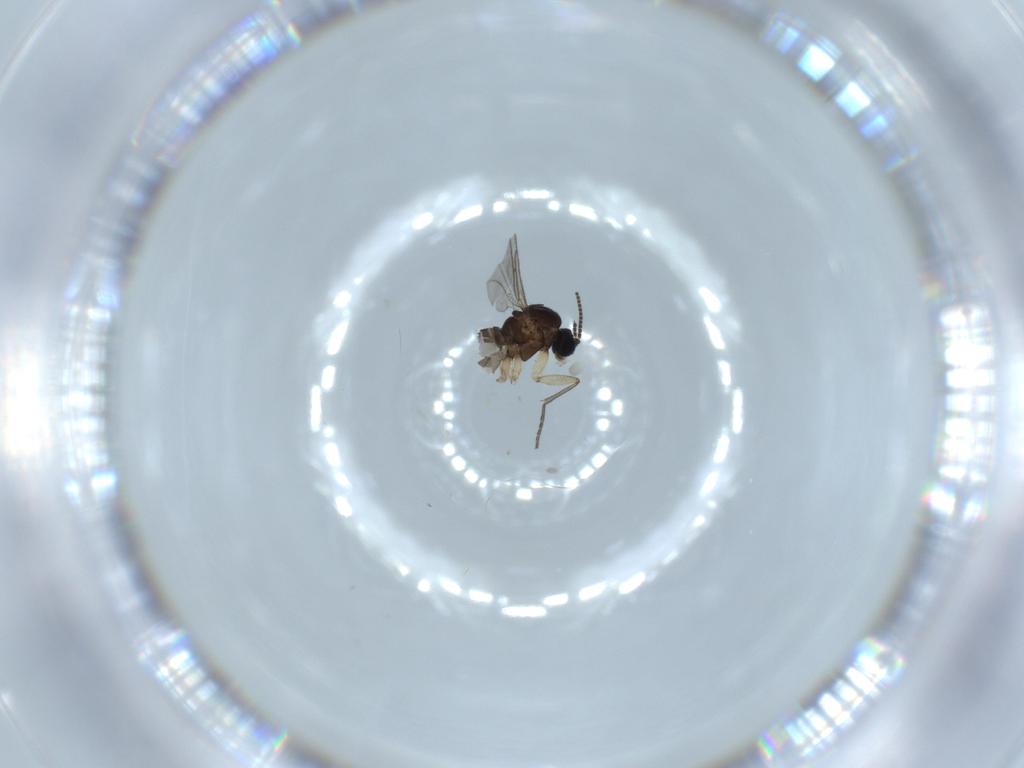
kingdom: Animalia
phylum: Arthropoda
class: Insecta
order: Diptera
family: Sciaridae
